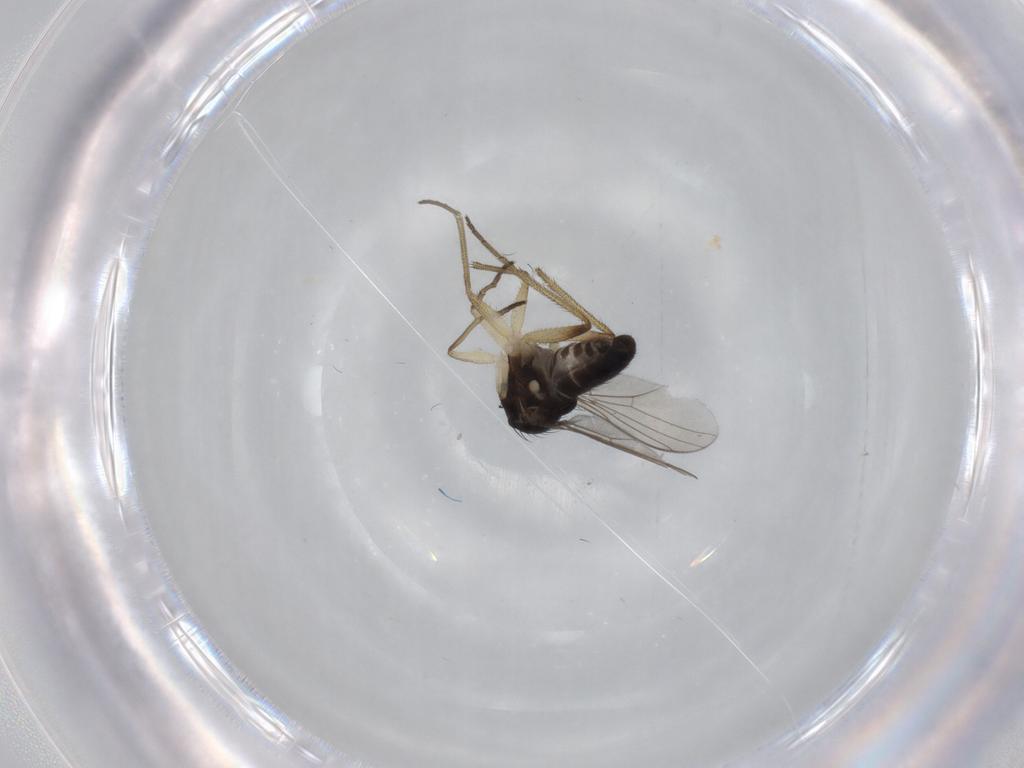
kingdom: Animalia
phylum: Arthropoda
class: Insecta
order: Diptera
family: Dolichopodidae
